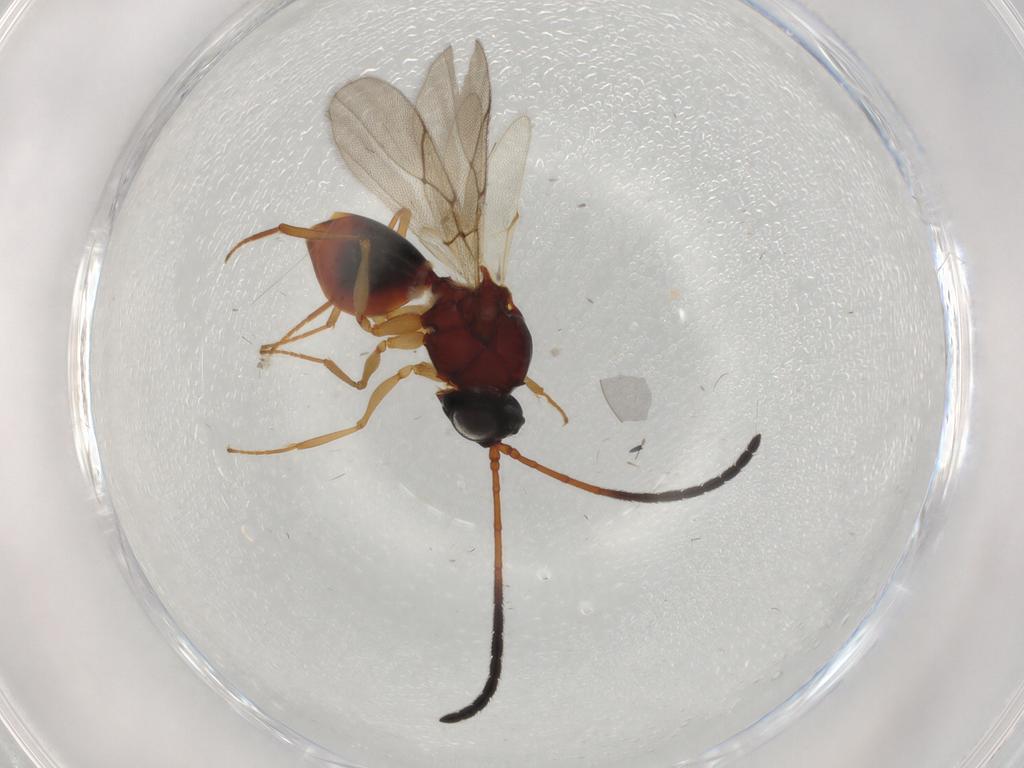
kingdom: Animalia
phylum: Arthropoda
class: Insecta
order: Hymenoptera
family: Figitidae
